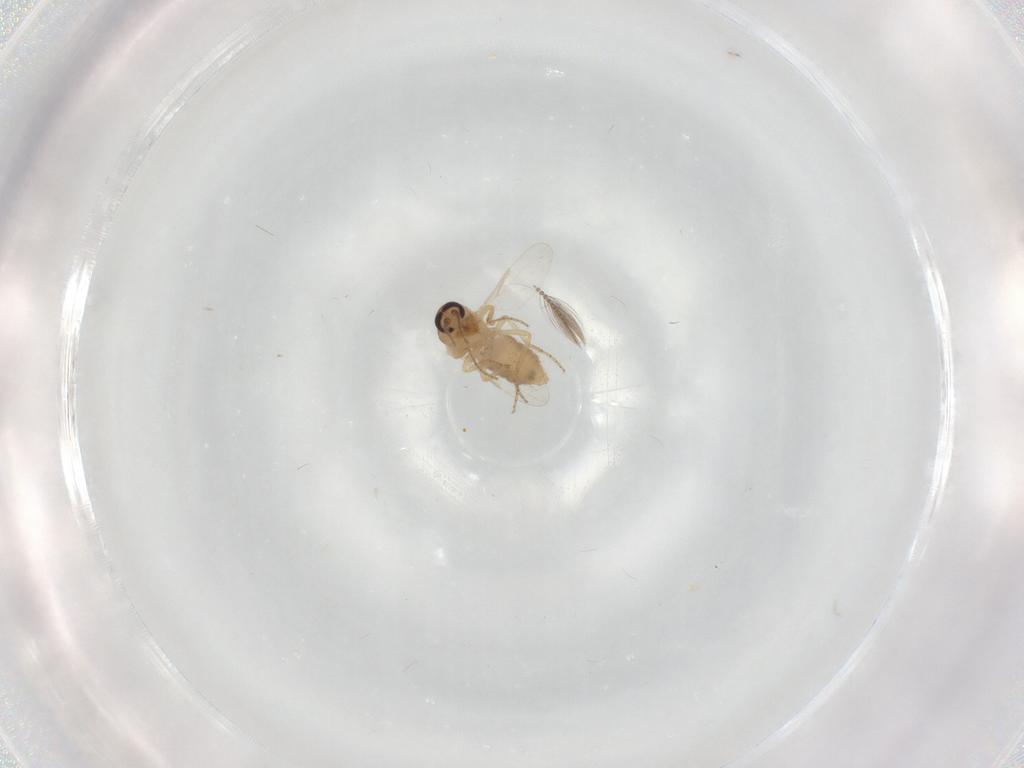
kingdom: Animalia
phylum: Arthropoda
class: Insecta
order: Diptera
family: Ceratopogonidae
